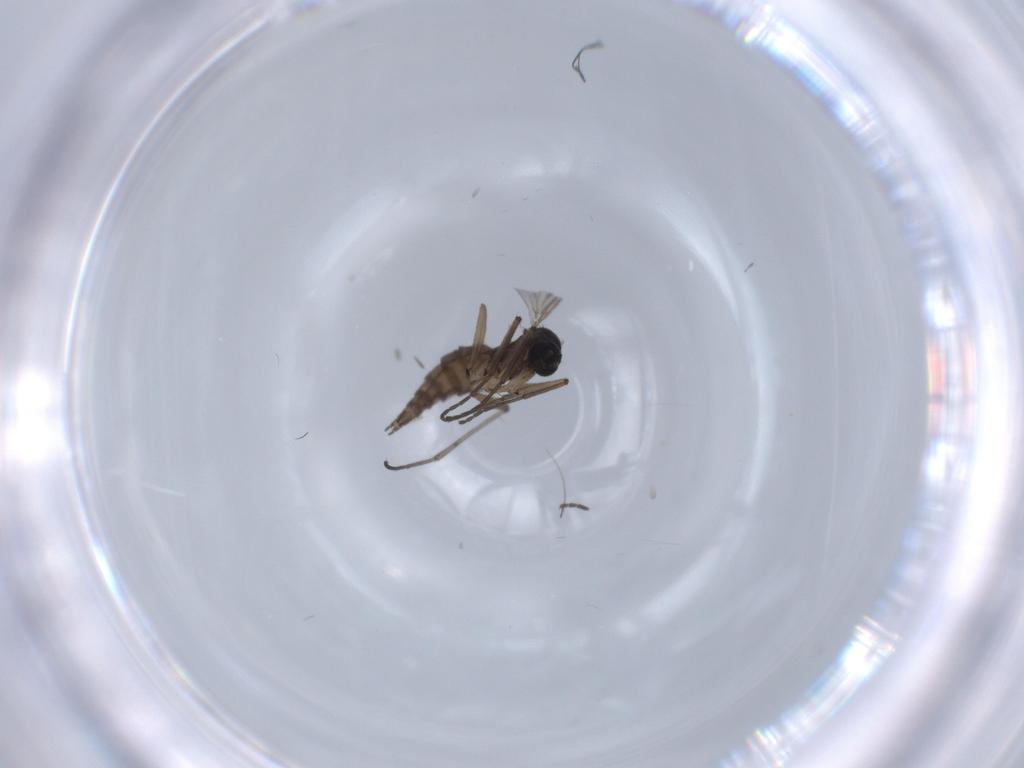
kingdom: Animalia
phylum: Arthropoda
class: Insecta
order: Diptera
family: Sciaridae
